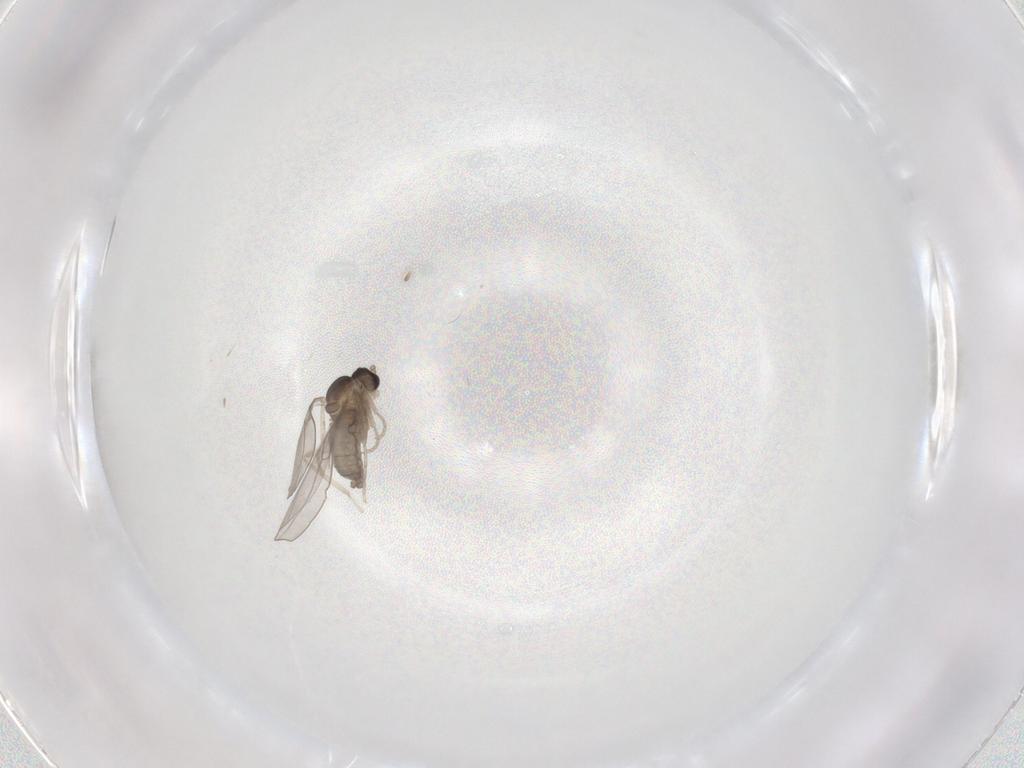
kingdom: Animalia
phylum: Arthropoda
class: Insecta
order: Diptera
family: Cecidomyiidae
